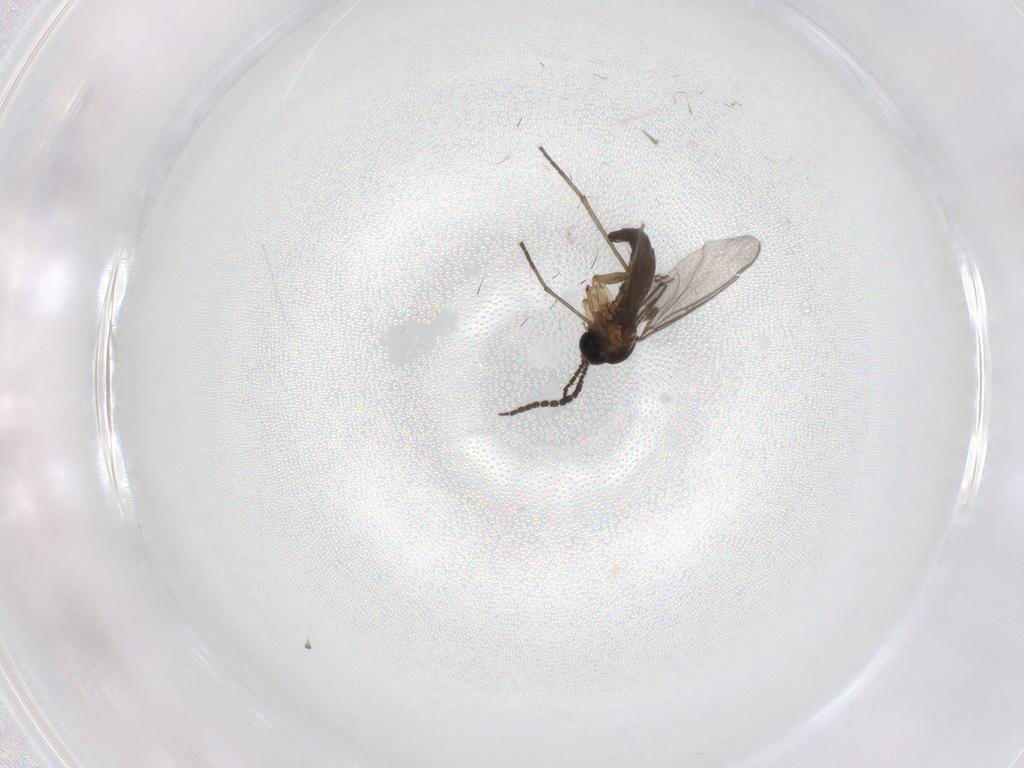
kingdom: Animalia
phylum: Arthropoda
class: Insecta
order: Diptera
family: Sciaridae
